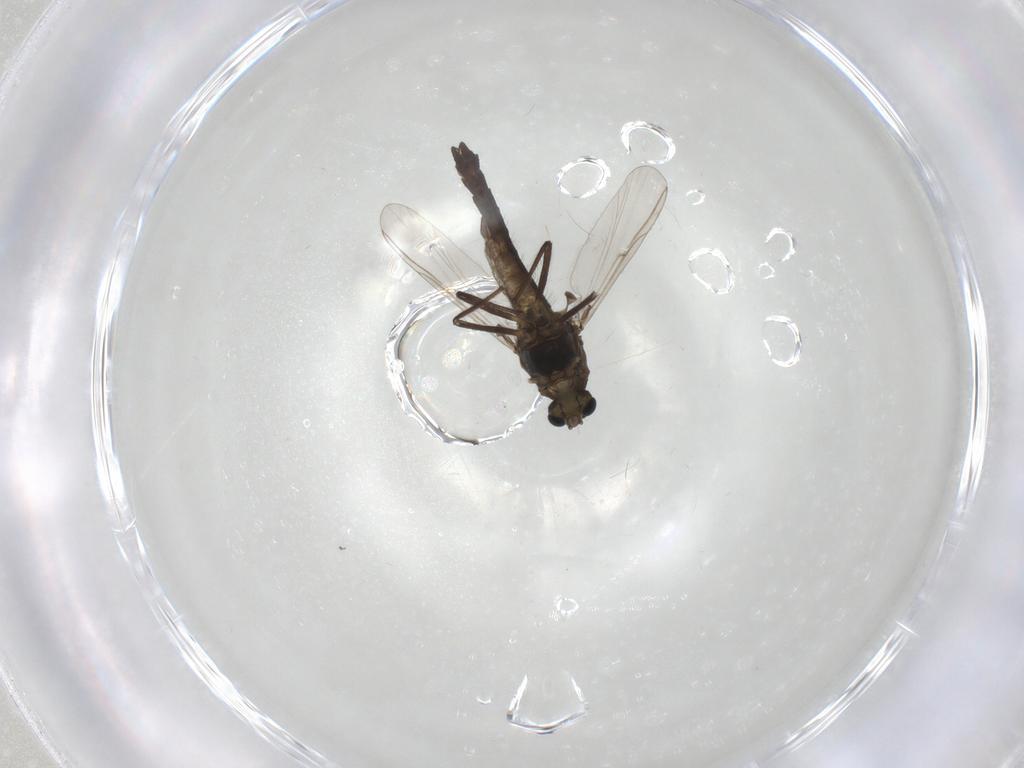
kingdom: Animalia
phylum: Arthropoda
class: Insecta
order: Diptera
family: Chironomidae
